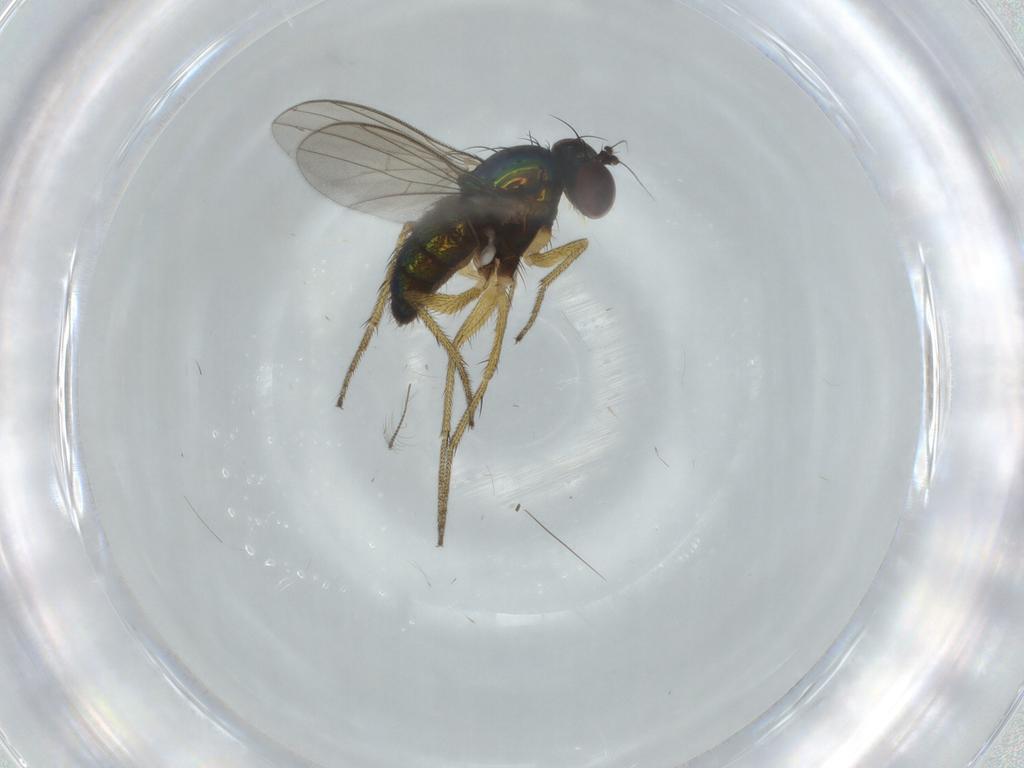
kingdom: Animalia
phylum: Arthropoda
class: Insecta
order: Diptera
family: Dolichopodidae
